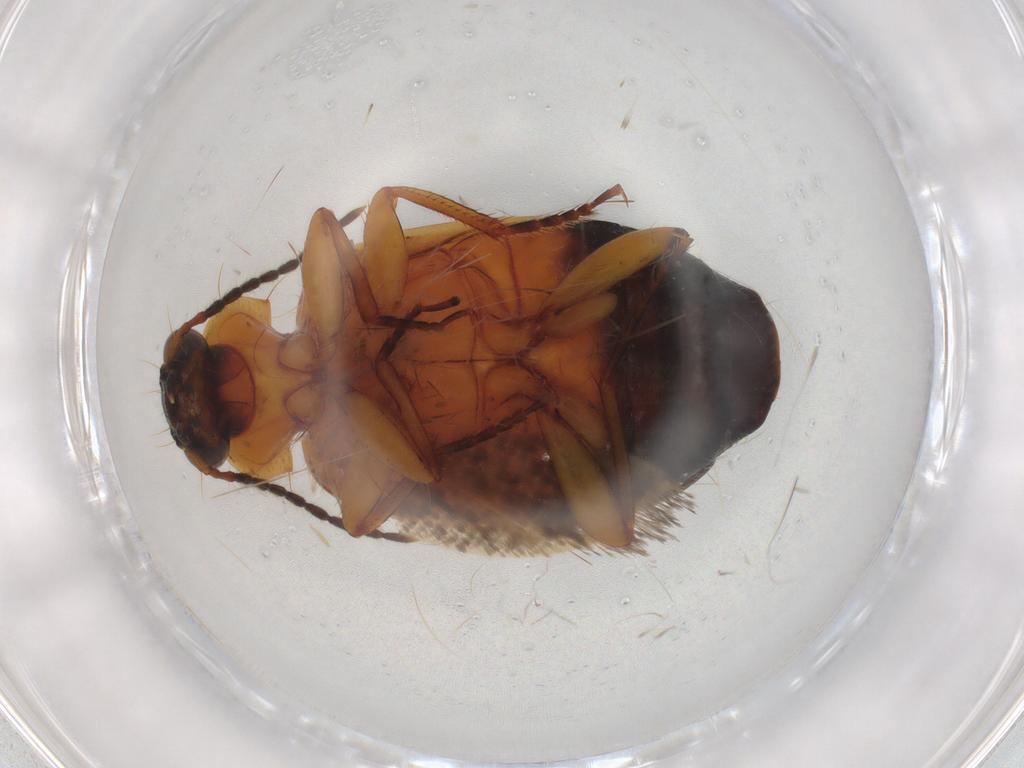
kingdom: Animalia
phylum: Arthropoda
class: Insecta
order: Coleoptera
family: Carabidae
